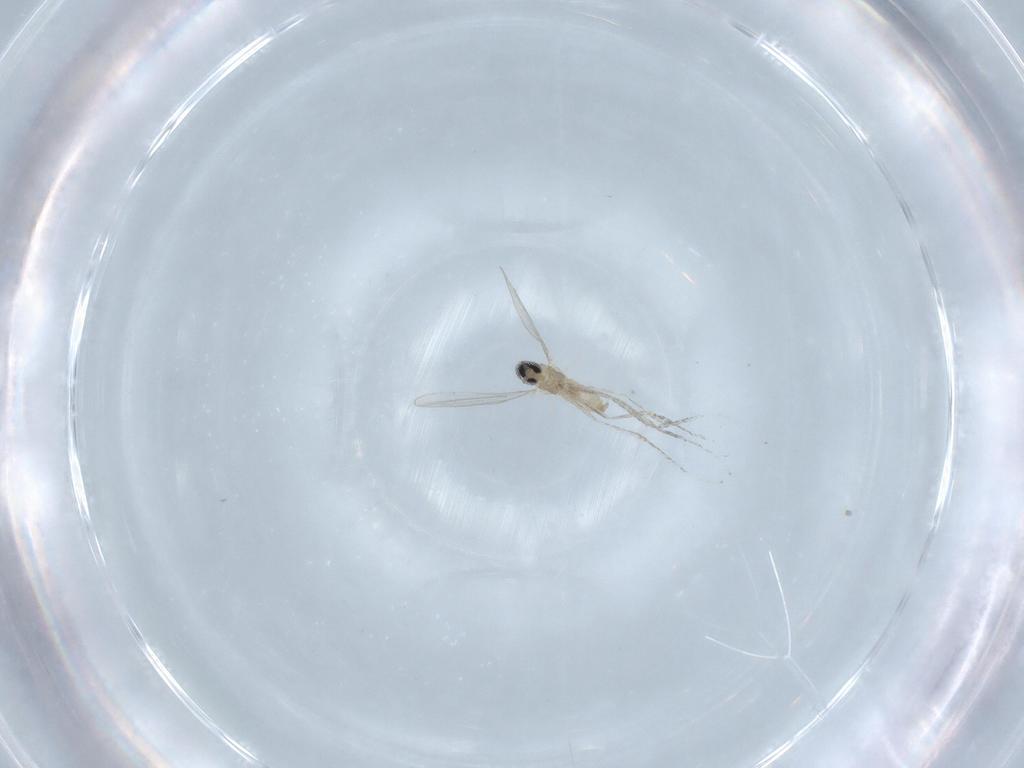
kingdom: Animalia
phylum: Arthropoda
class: Insecta
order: Diptera
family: Cecidomyiidae
